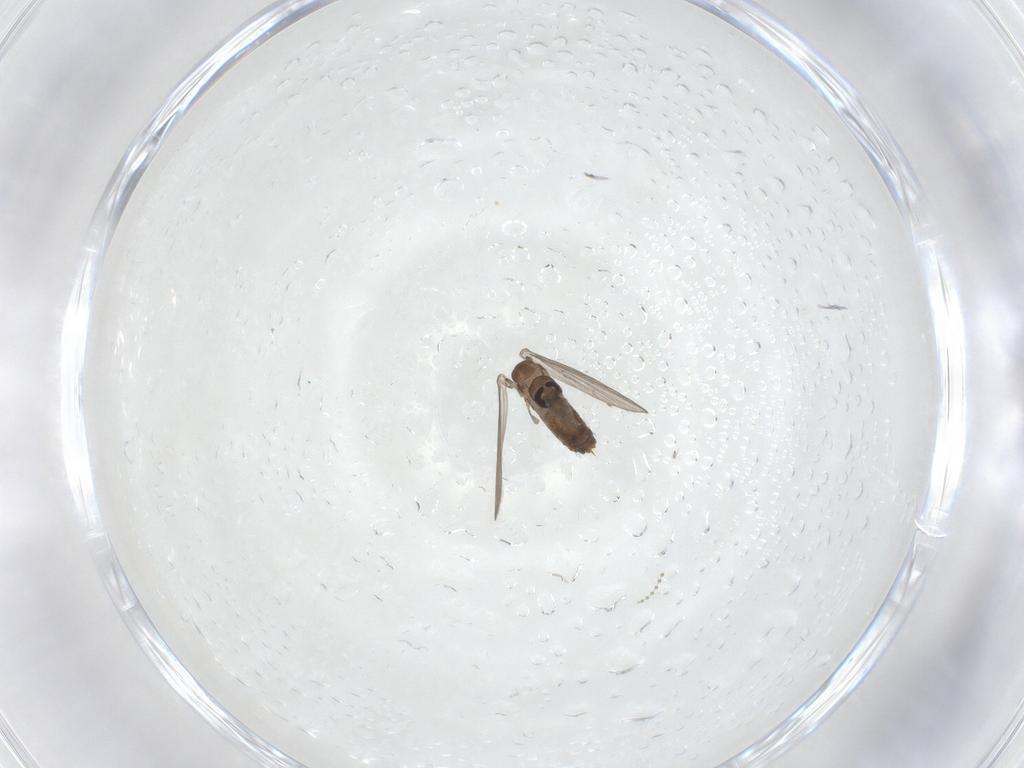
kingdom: Animalia
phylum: Arthropoda
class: Insecta
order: Diptera
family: Psychodidae
